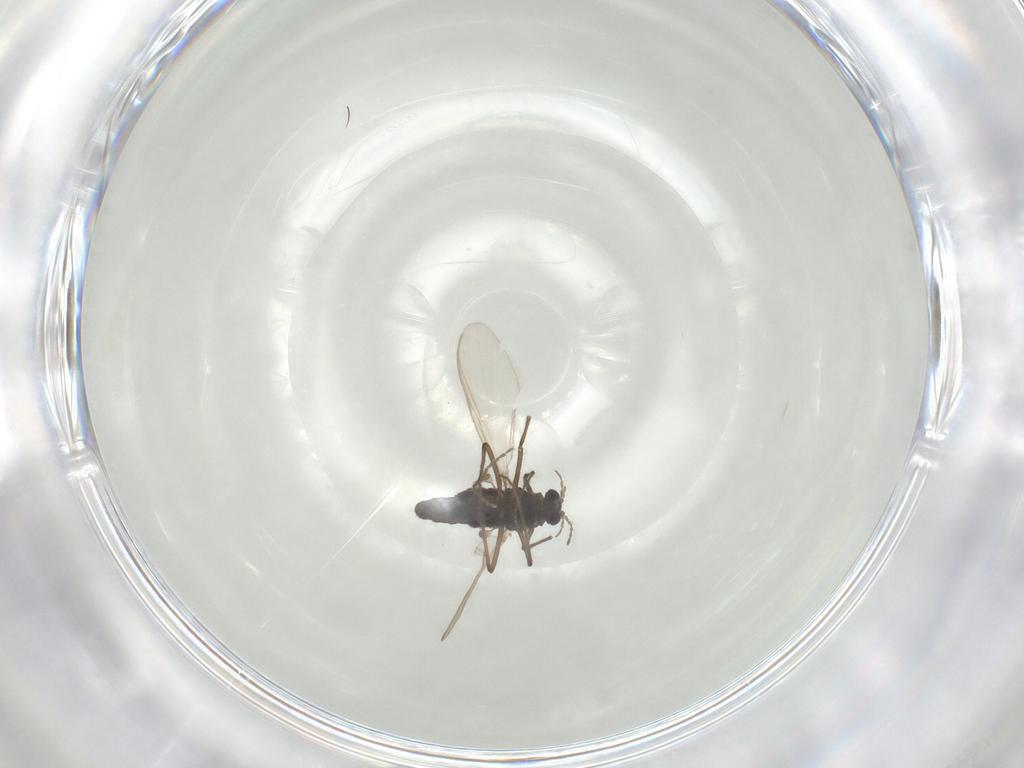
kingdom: Animalia
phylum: Arthropoda
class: Insecta
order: Diptera
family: Chironomidae
